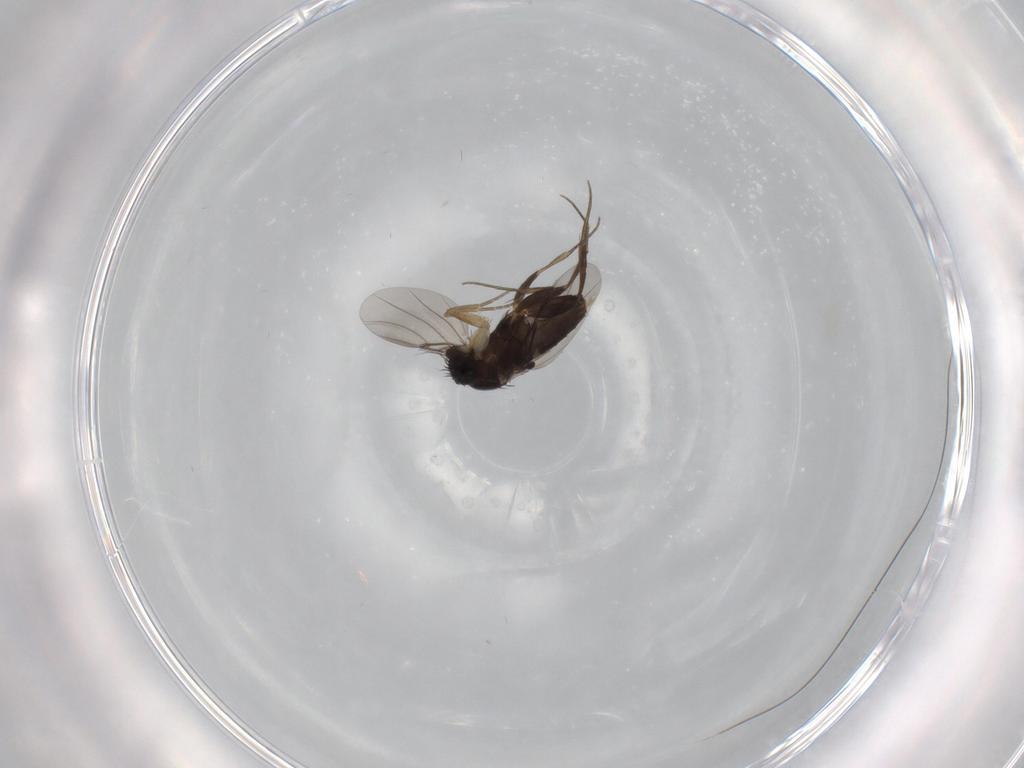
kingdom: Animalia
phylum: Arthropoda
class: Insecta
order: Diptera
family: Phoridae
